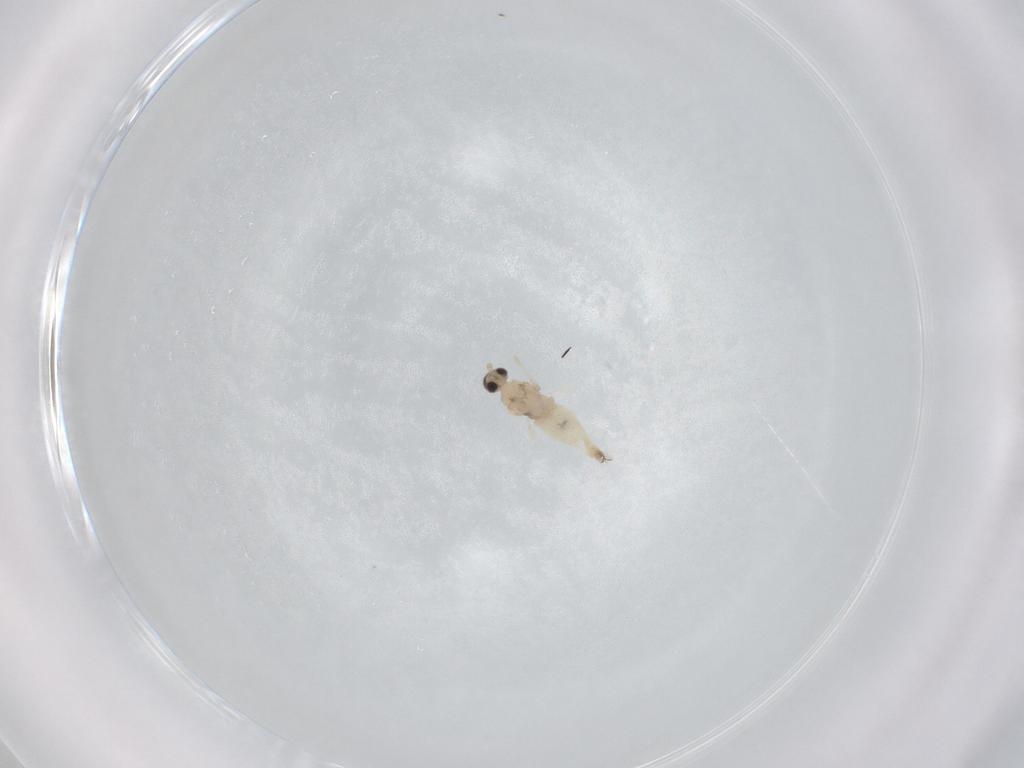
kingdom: Animalia
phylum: Arthropoda
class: Insecta
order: Diptera
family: Cecidomyiidae
